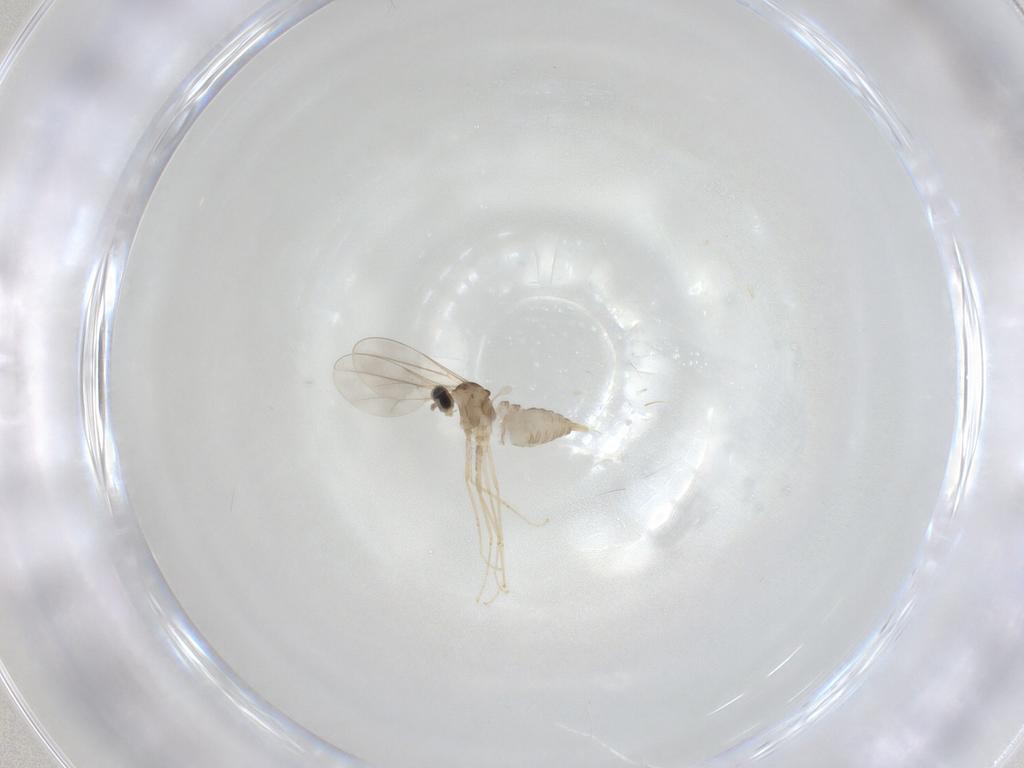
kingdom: Animalia
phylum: Arthropoda
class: Insecta
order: Diptera
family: Cecidomyiidae
